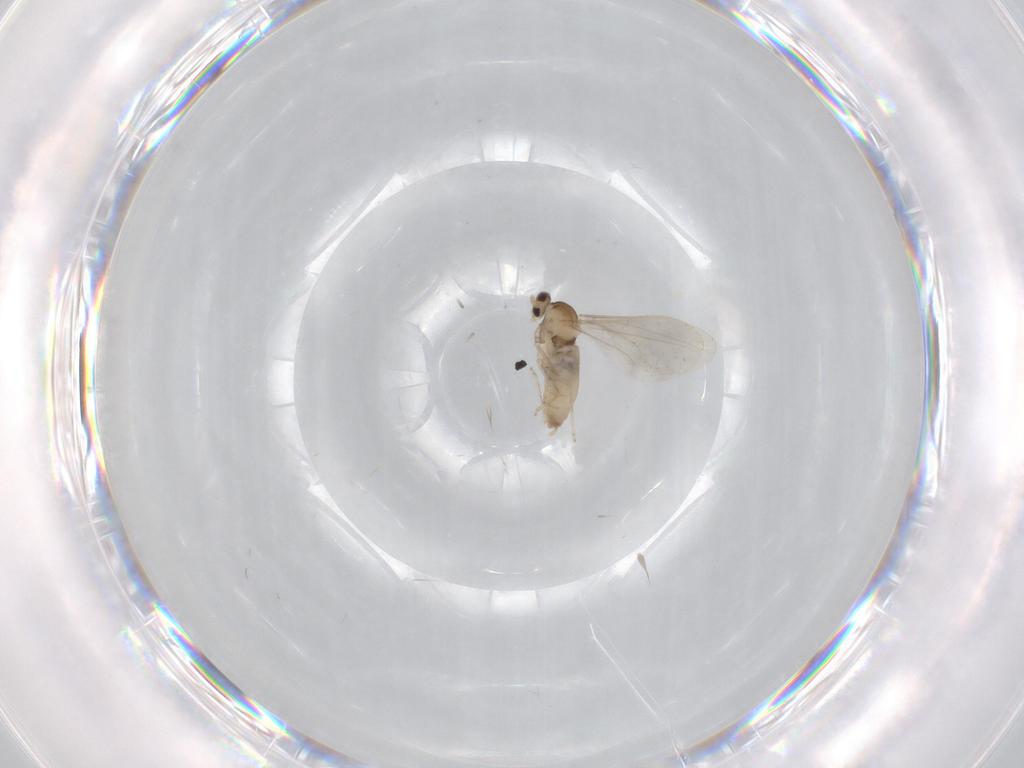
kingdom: Animalia
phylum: Arthropoda
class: Insecta
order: Diptera
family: Cecidomyiidae
